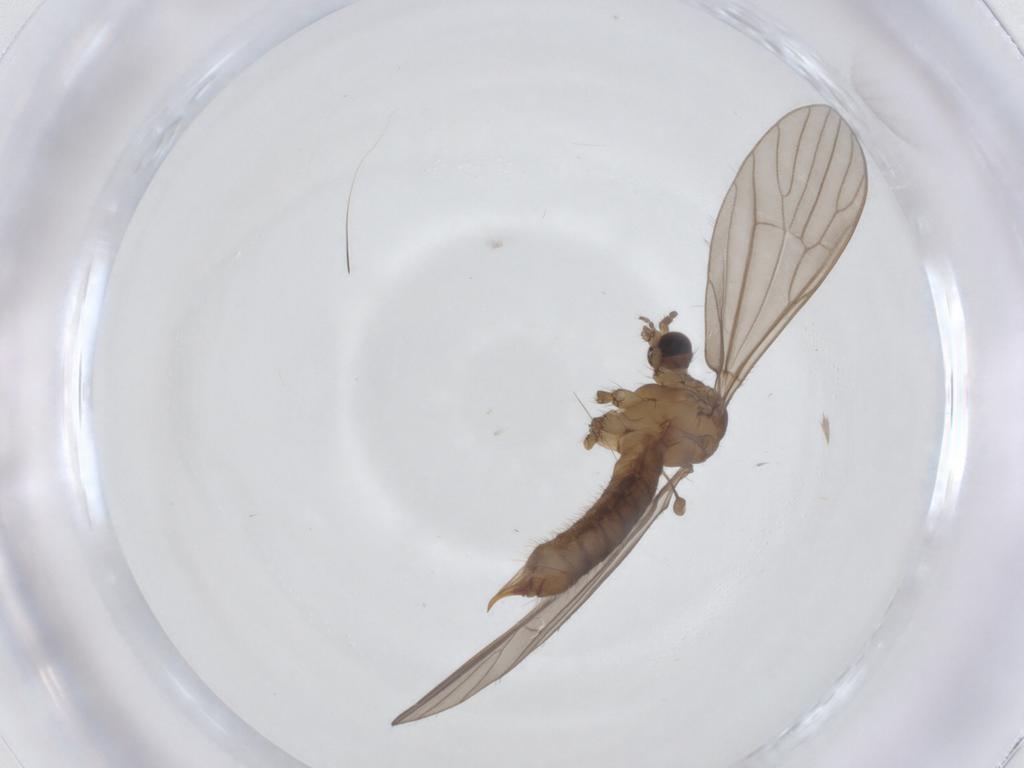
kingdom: Animalia
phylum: Arthropoda
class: Insecta
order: Diptera
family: Limoniidae
